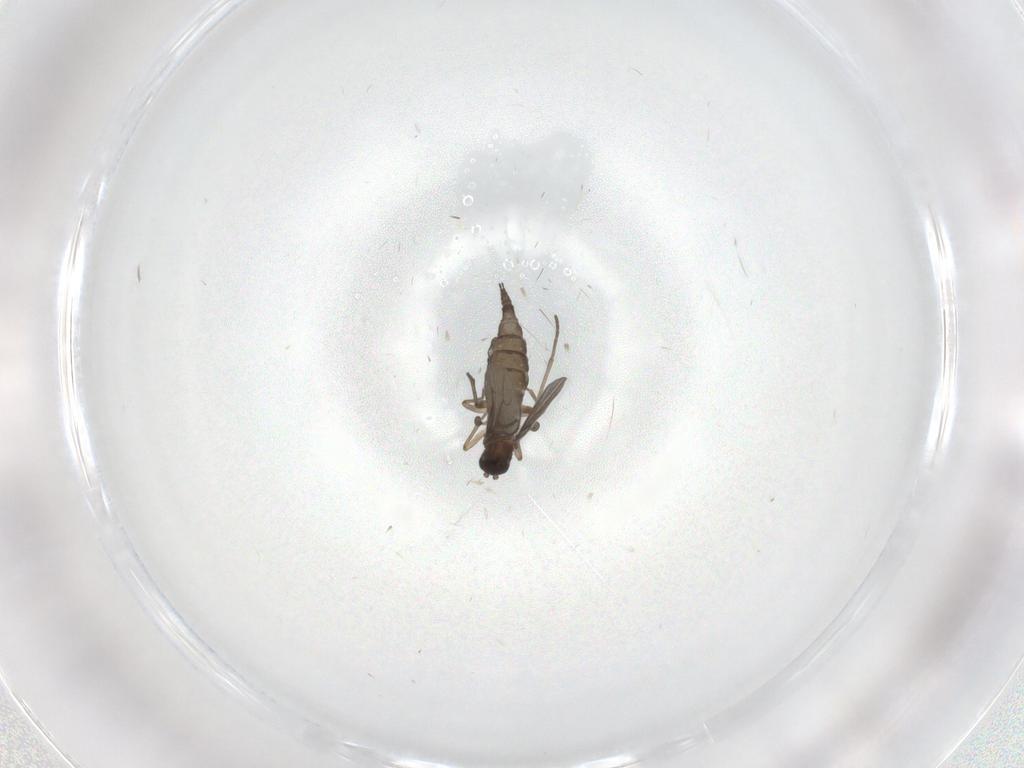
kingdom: Animalia
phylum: Arthropoda
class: Insecta
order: Diptera
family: Sciaridae
